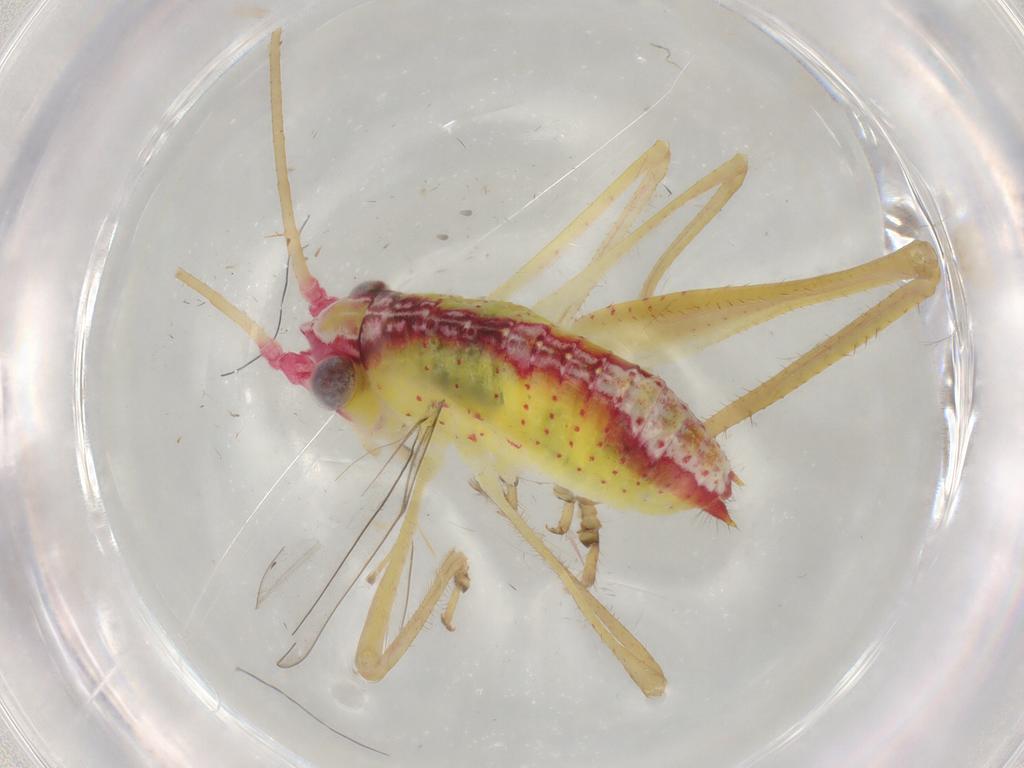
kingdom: Animalia
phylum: Arthropoda
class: Insecta
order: Orthoptera
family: Tettigoniidae
